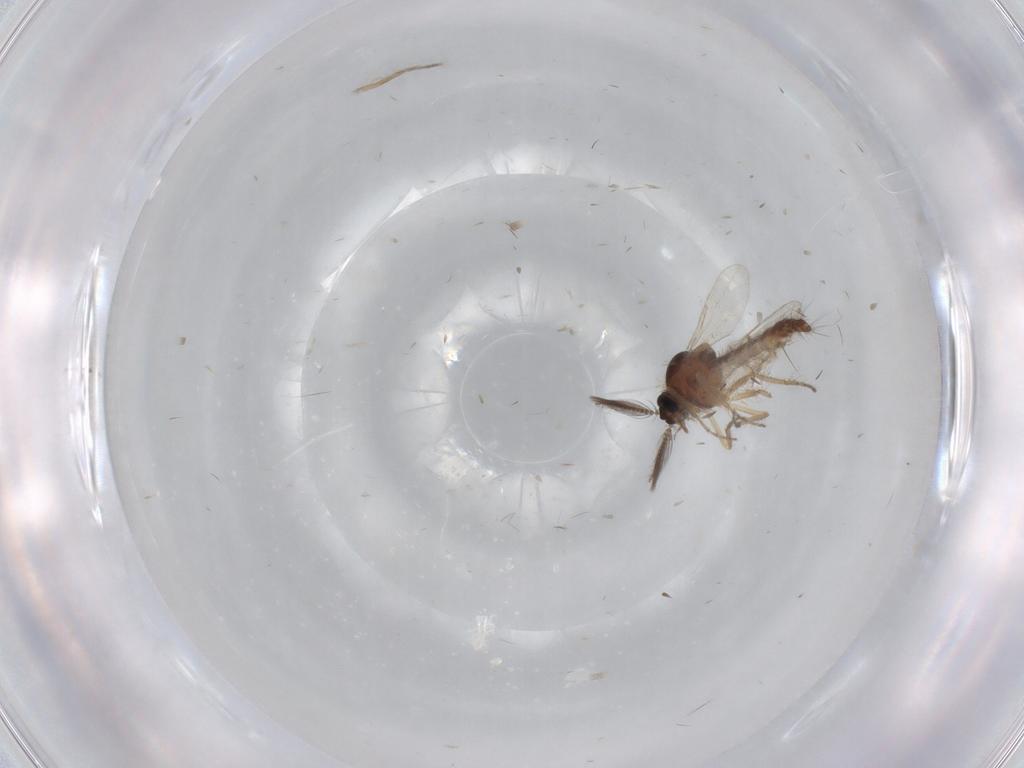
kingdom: Animalia
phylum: Arthropoda
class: Insecta
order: Diptera
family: Ceratopogonidae
